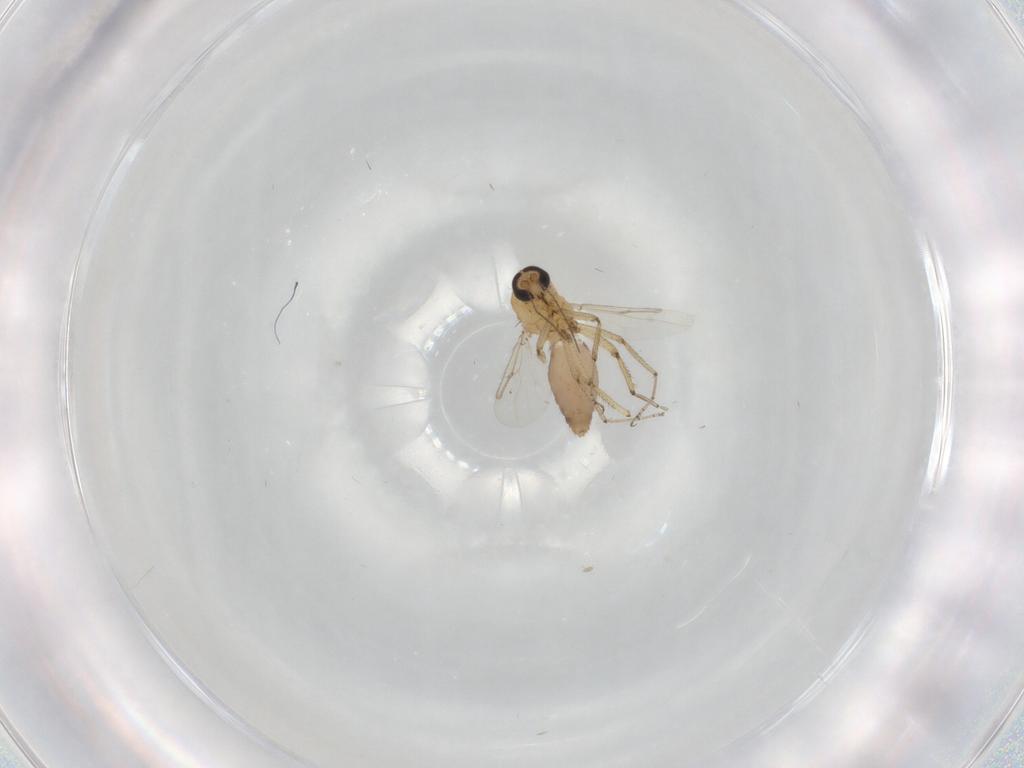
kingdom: Animalia
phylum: Arthropoda
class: Insecta
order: Diptera
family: Ceratopogonidae
